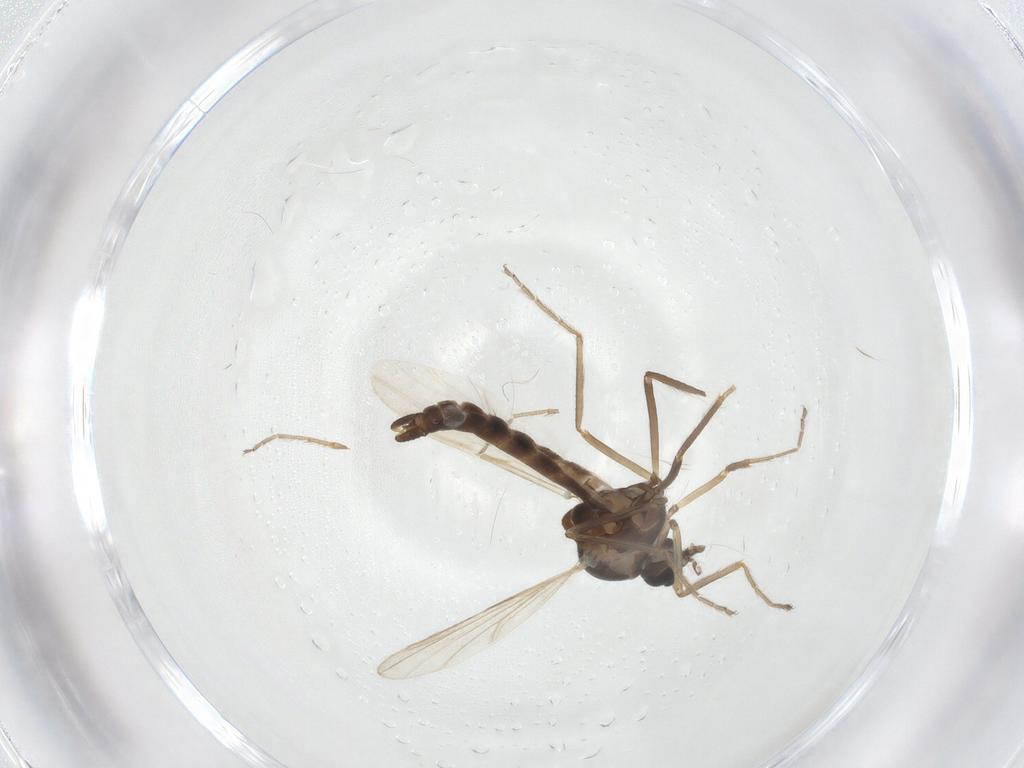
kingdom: Animalia
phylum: Arthropoda
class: Insecta
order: Diptera
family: Ceratopogonidae
